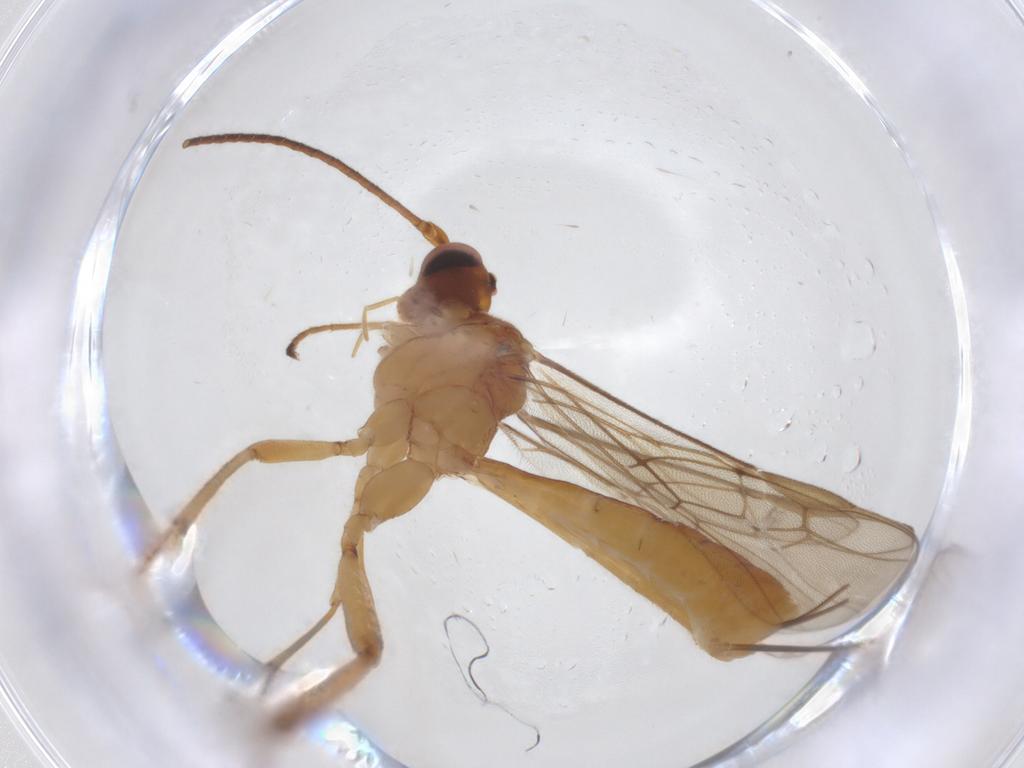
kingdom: Animalia
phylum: Arthropoda
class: Insecta
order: Hymenoptera
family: Braconidae
